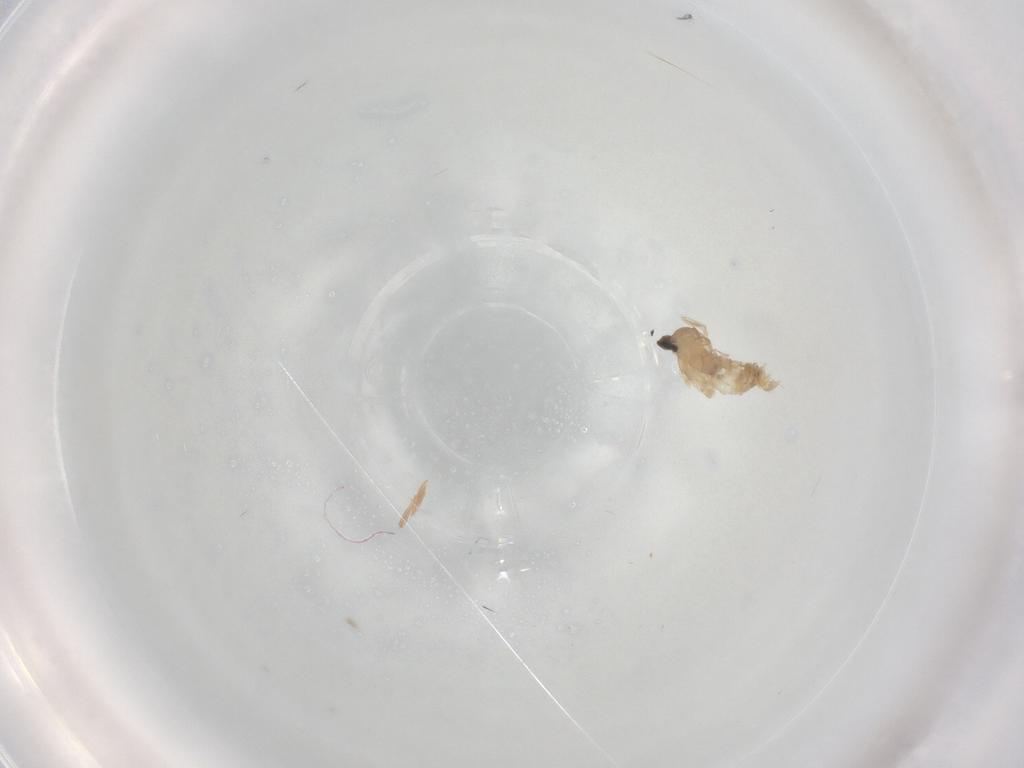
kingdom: Animalia
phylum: Arthropoda
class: Insecta
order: Diptera
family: Cecidomyiidae
